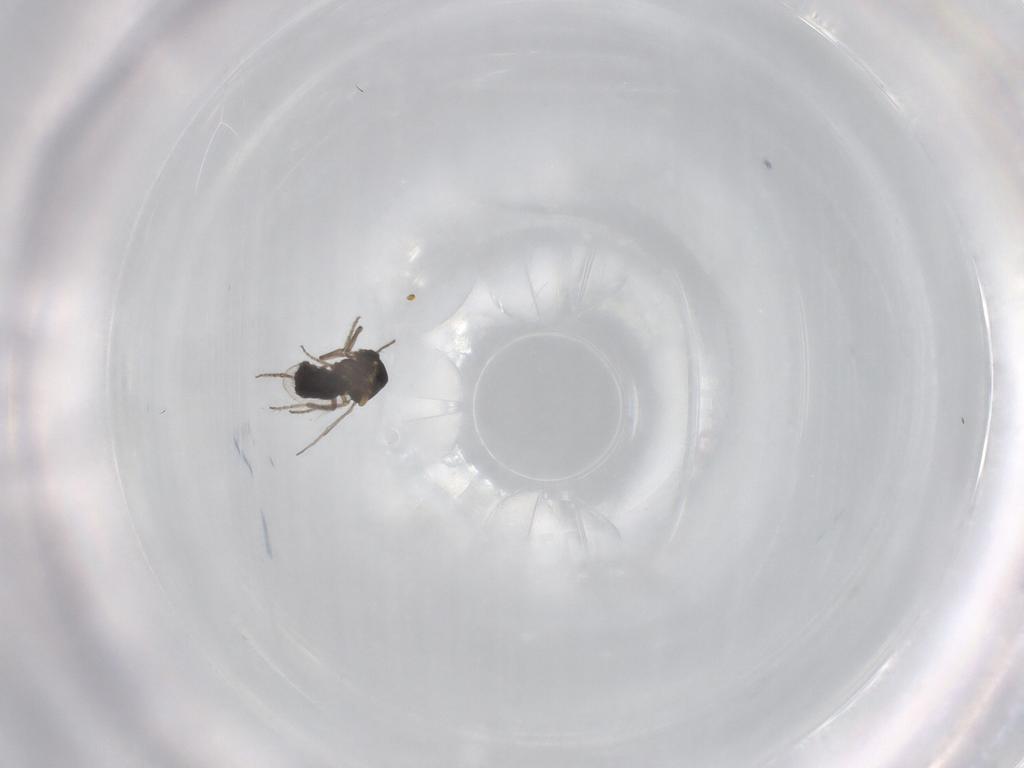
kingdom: Animalia
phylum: Arthropoda
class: Insecta
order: Diptera
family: Ceratopogonidae
